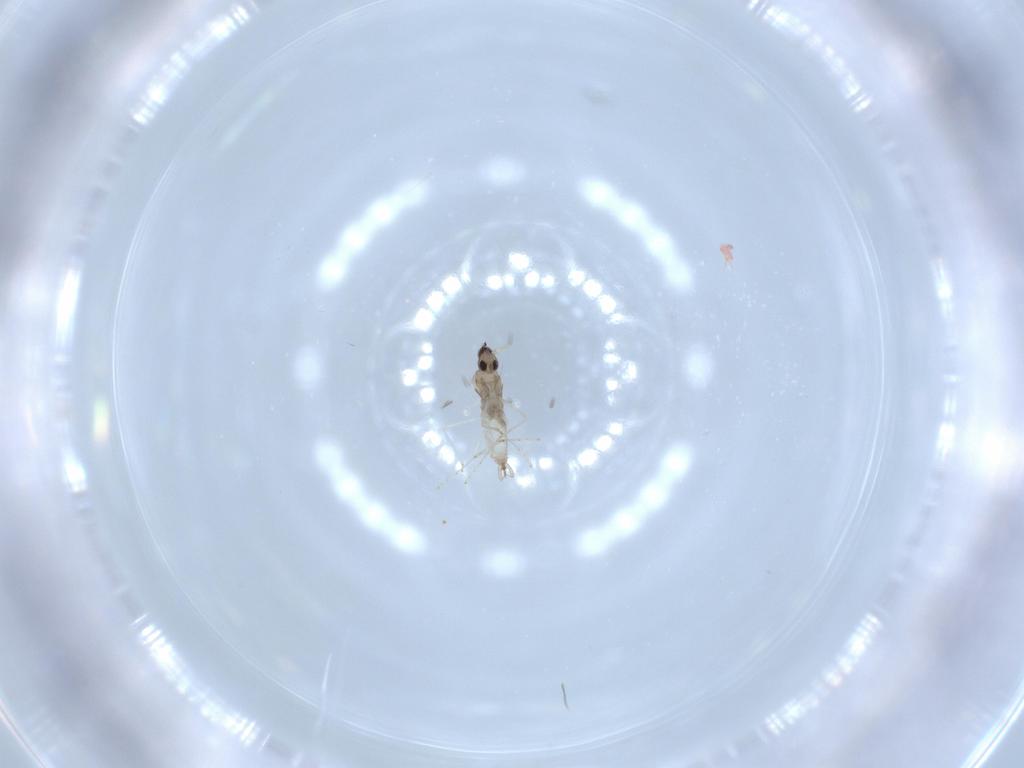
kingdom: Animalia
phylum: Arthropoda
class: Insecta
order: Diptera
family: Cecidomyiidae
